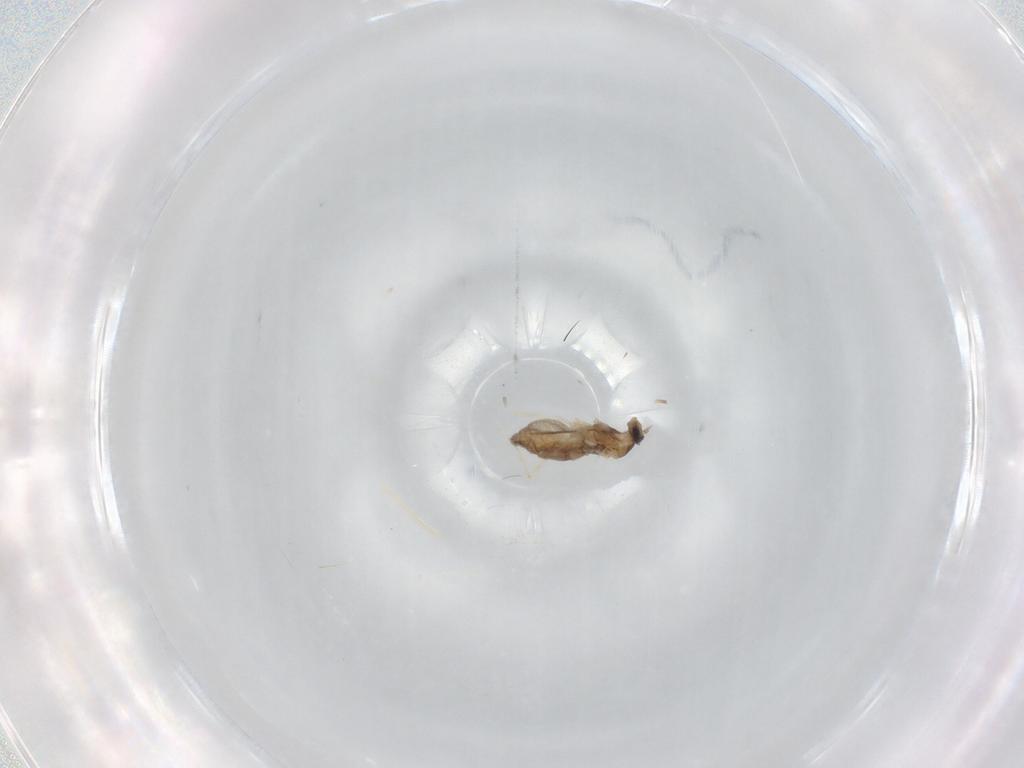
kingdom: Animalia
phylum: Arthropoda
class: Insecta
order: Diptera
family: Cecidomyiidae
